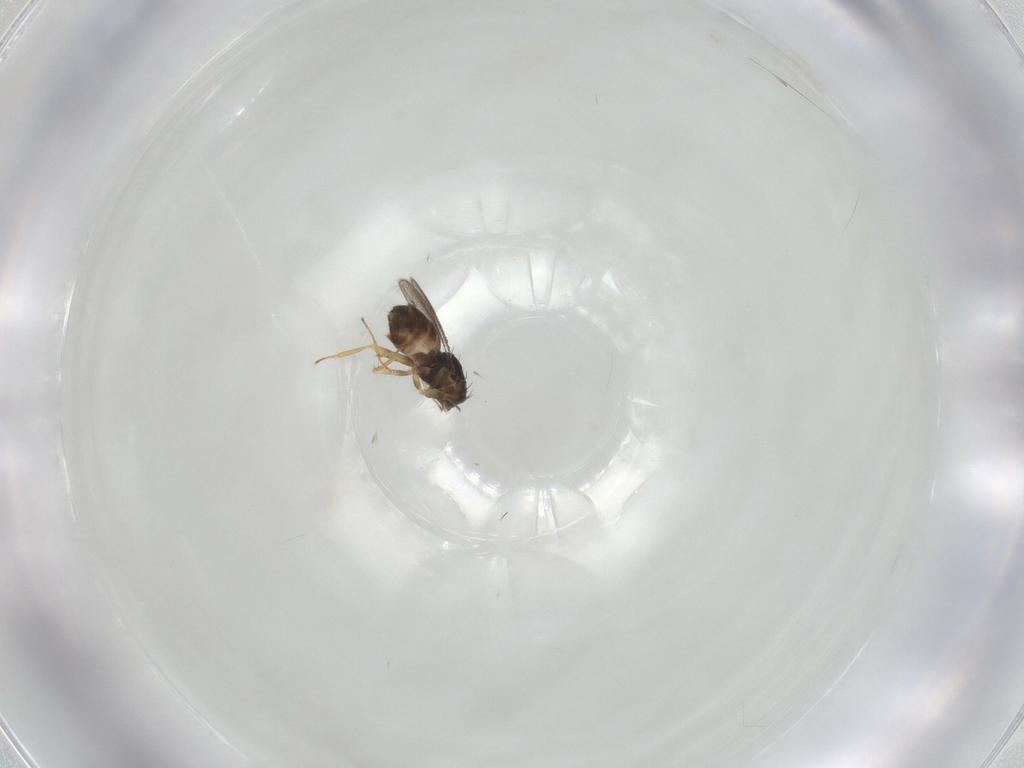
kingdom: Animalia
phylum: Arthropoda
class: Insecta
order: Hymenoptera
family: Eulophidae
